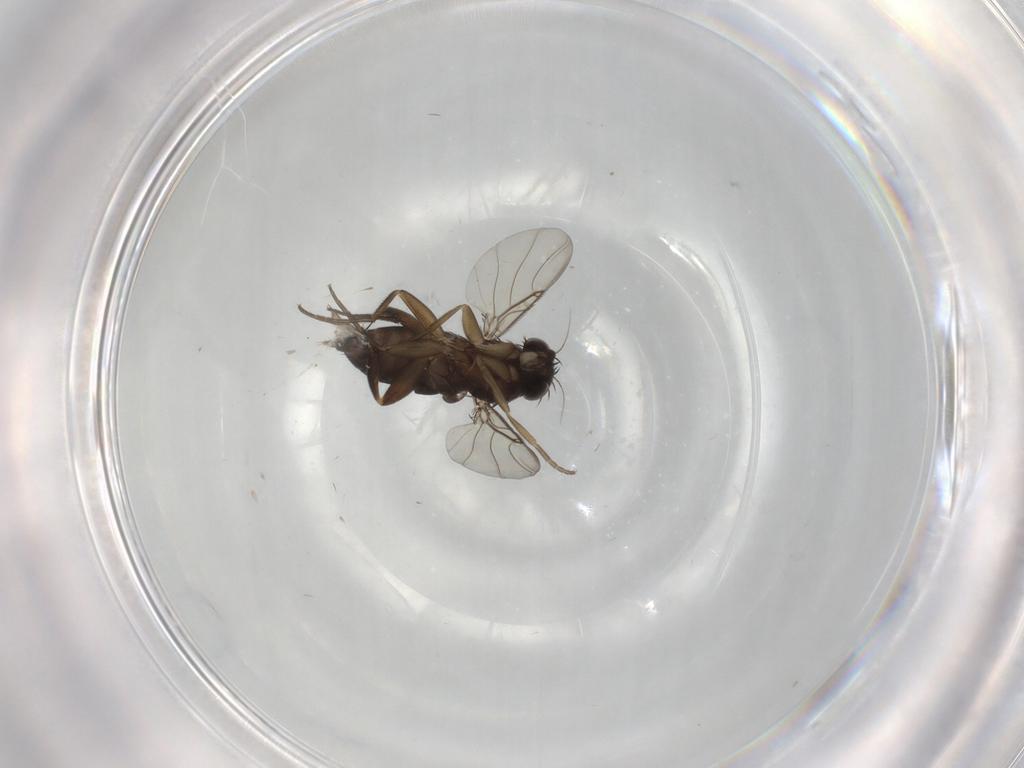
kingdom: Animalia
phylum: Arthropoda
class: Insecta
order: Diptera
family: Phoridae
